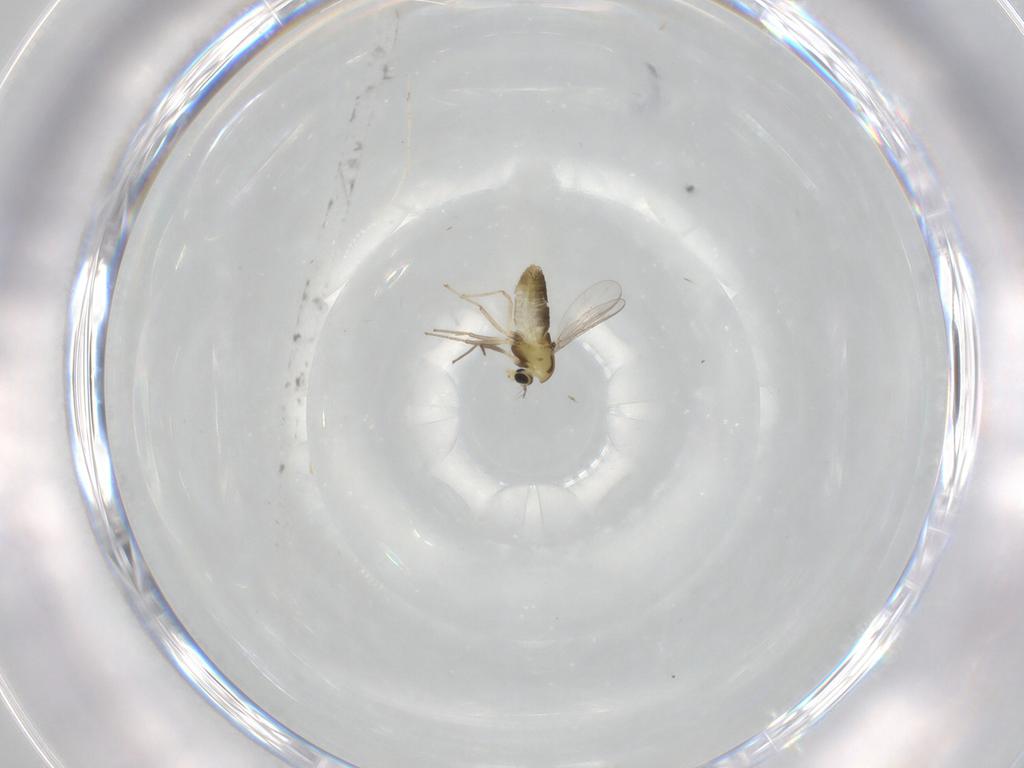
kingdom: Animalia
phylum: Arthropoda
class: Insecta
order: Diptera
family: Chironomidae
